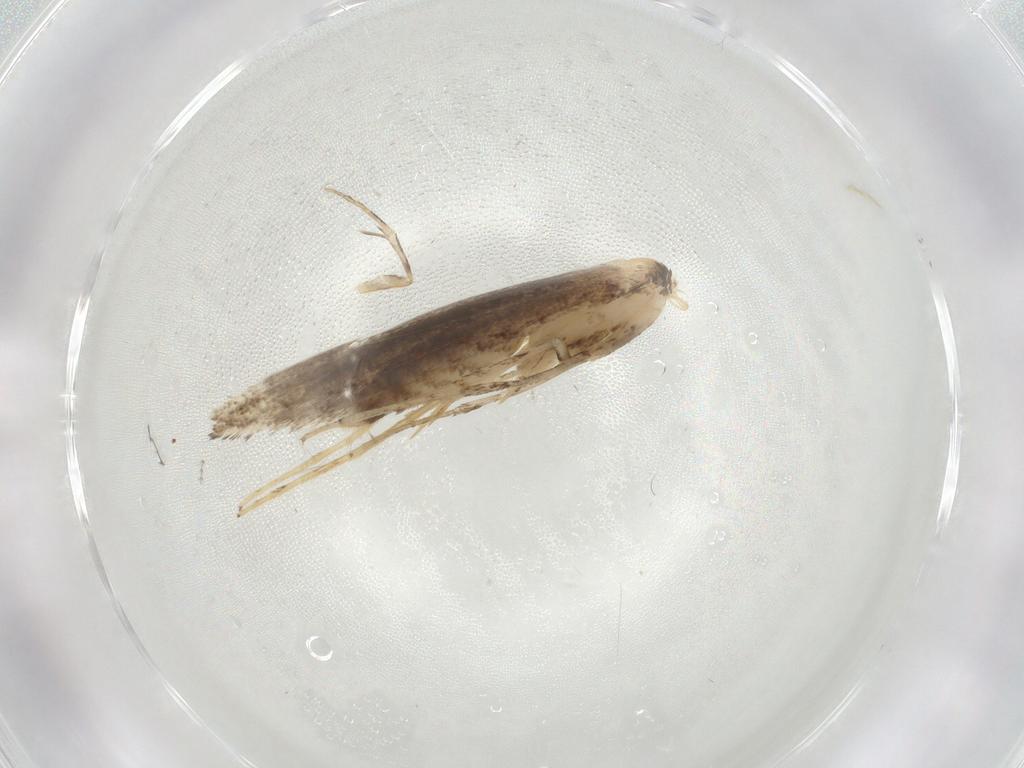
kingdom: Animalia
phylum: Arthropoda
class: Insecta
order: Lepidoptera
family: Gracillariidae
